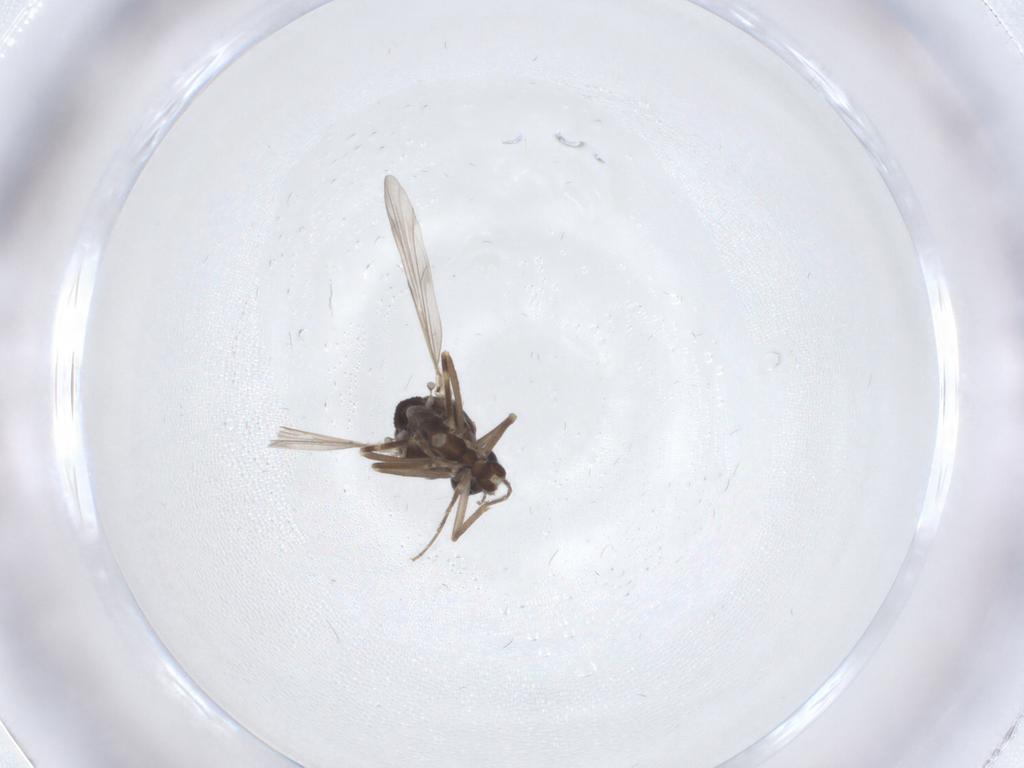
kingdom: Animalia
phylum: Arthropoda
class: Insecta
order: Diptera
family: Ceratopogonidae
